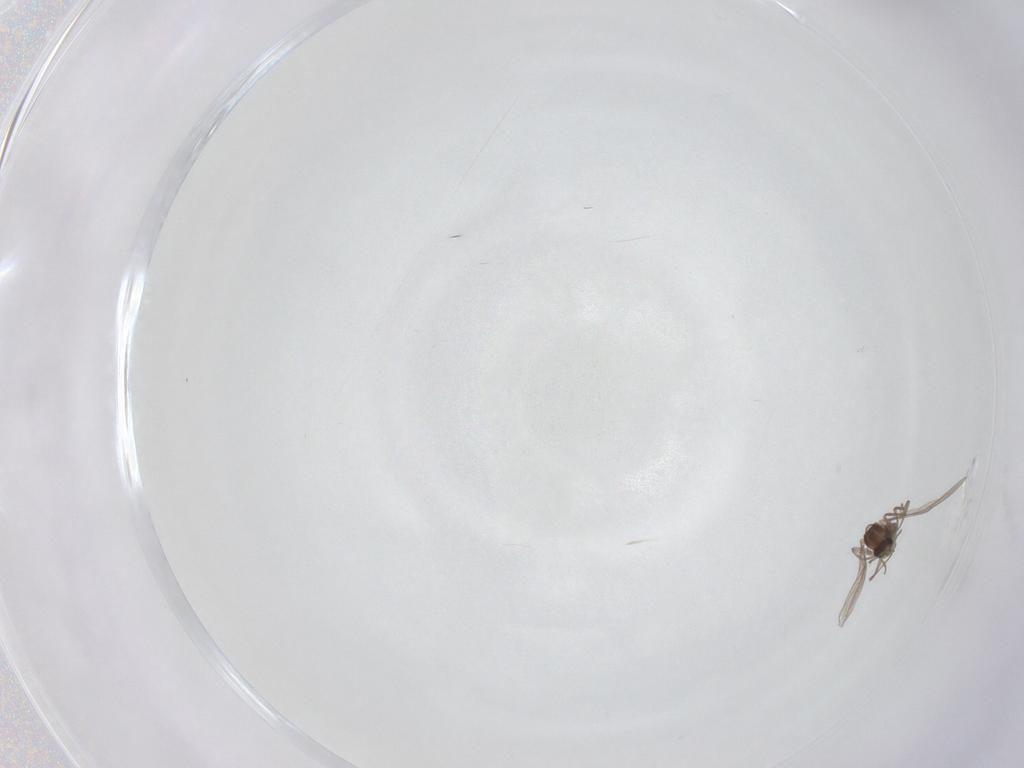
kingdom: Animalia
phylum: Arthropoda
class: Insecta
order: Diptera
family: Chironomidae
